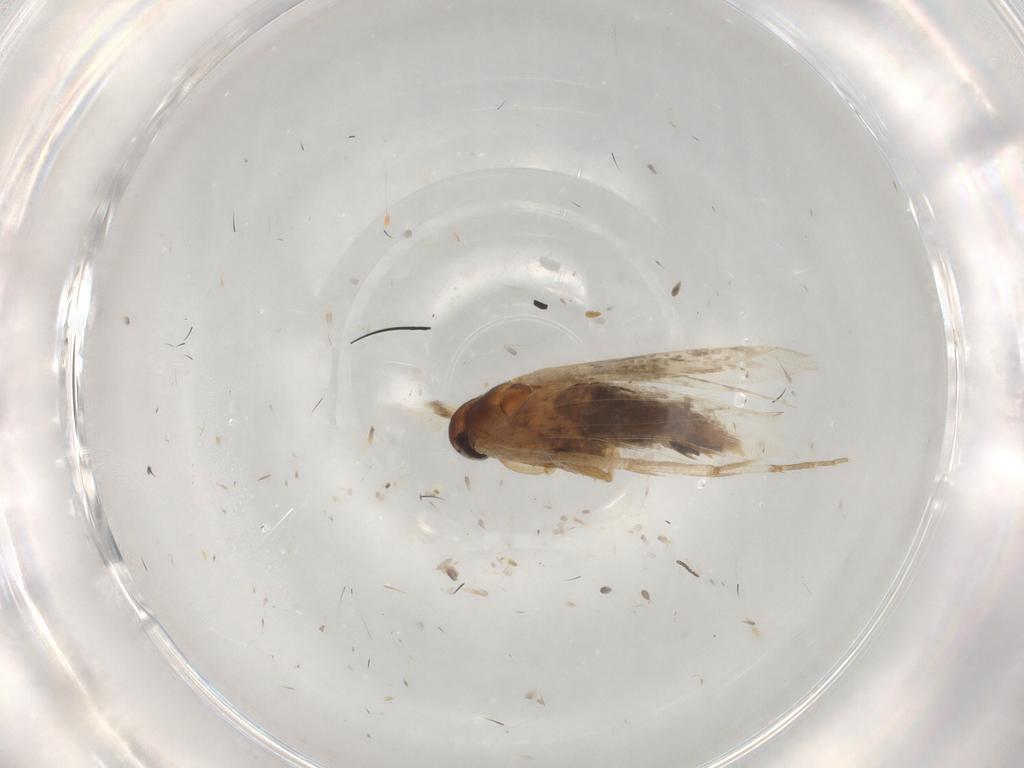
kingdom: Animalia
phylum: Arthropoda
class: Insecta
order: Lepidoptera
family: Cosmopterigidae
